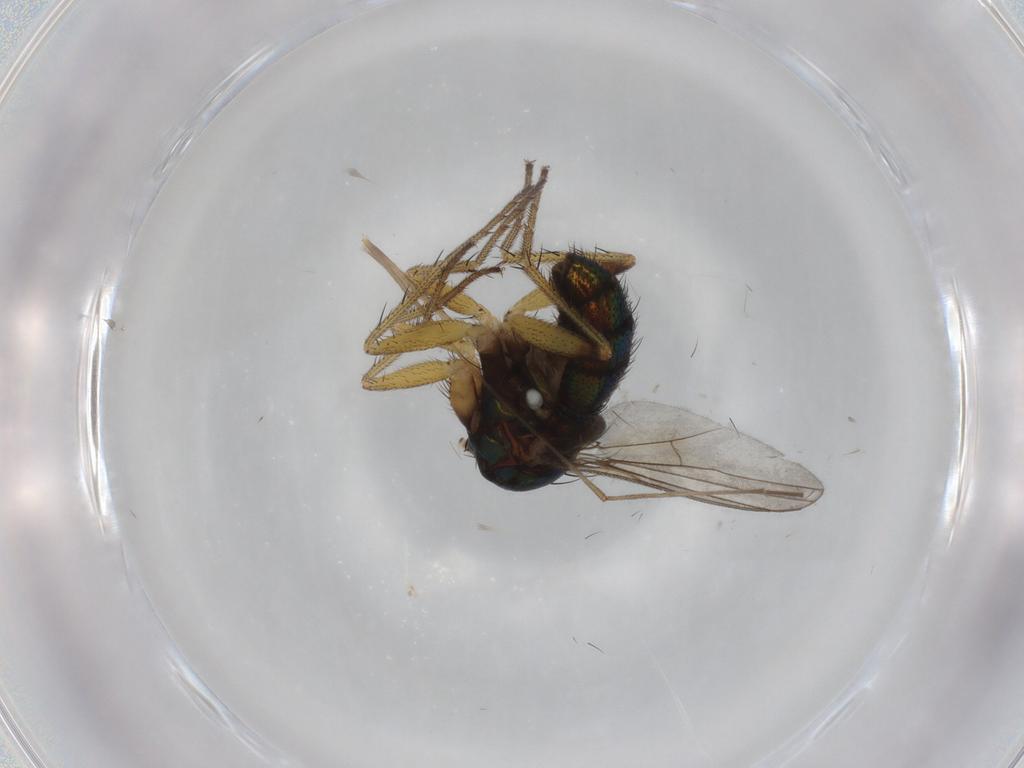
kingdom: Animalia
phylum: Arthropoda
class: Insecta
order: Diptera
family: Dolichopodidae
